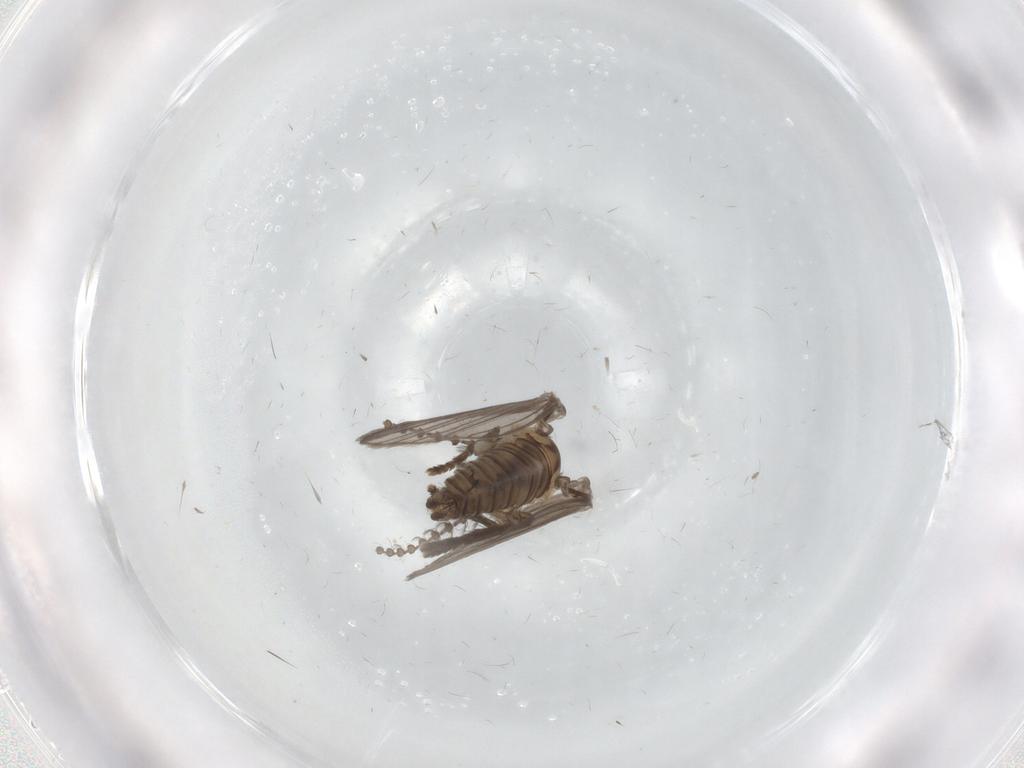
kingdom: Animalia
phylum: Arthropoda
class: Insecta
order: Diptera
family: Psychodidae
